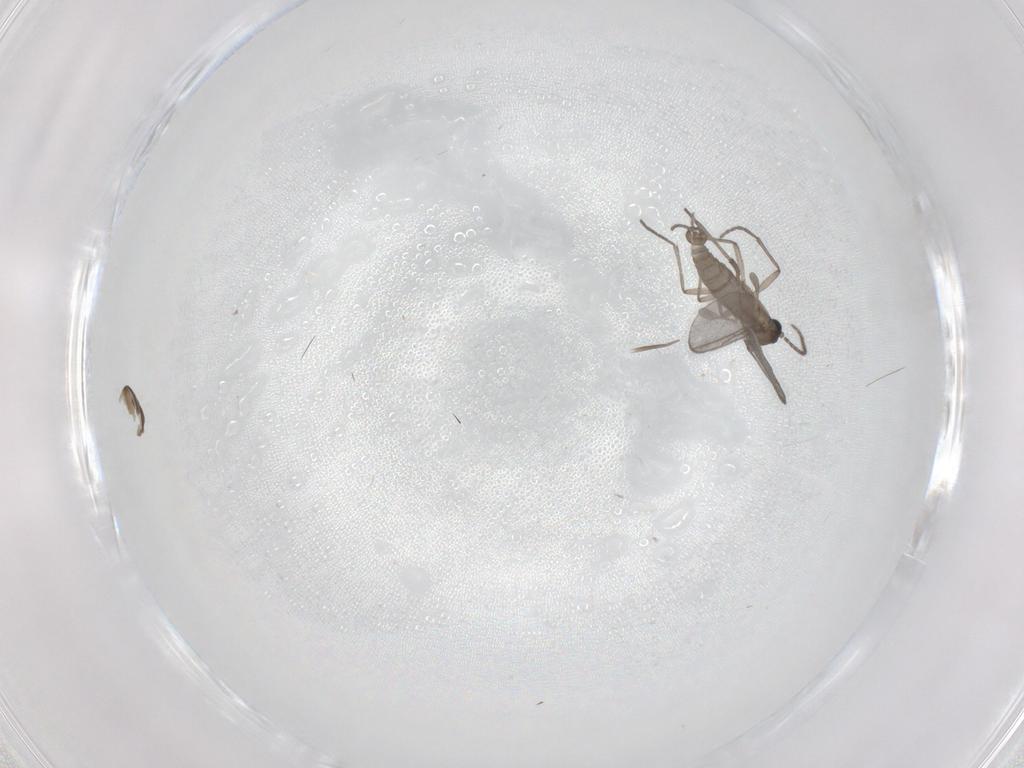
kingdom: Animalia
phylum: Arthropoda
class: Insecta
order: Diptera
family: Sciaridae
